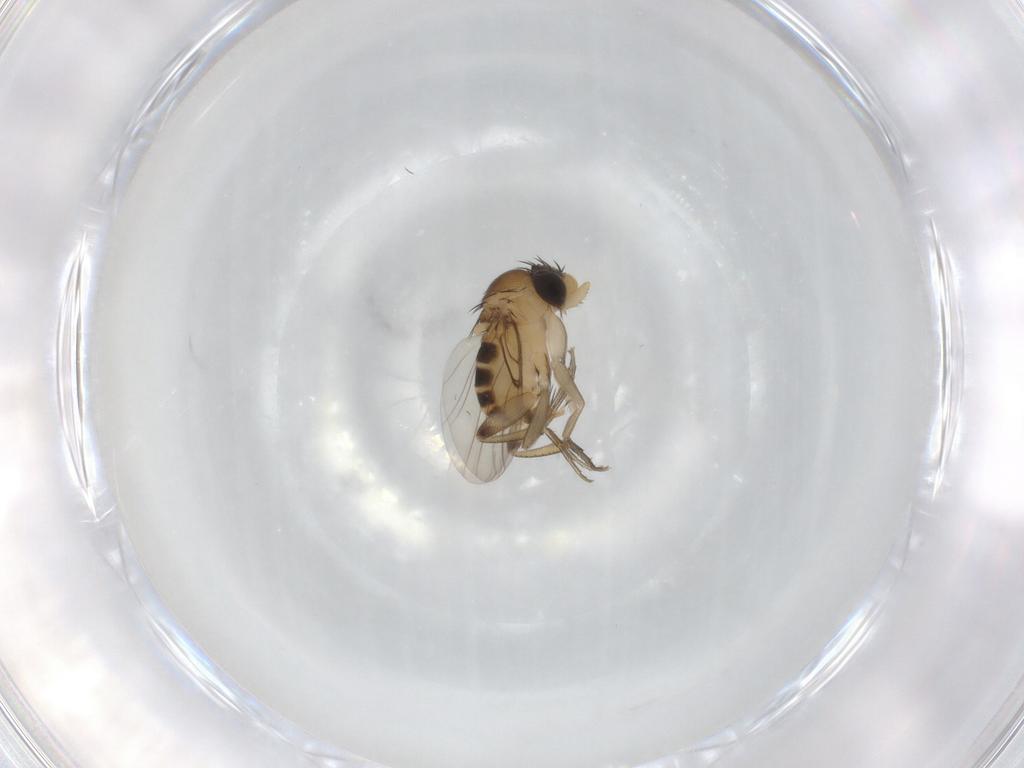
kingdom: Animalia
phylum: Arthropoda
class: Insecta
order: Diptera
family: Phoridae
